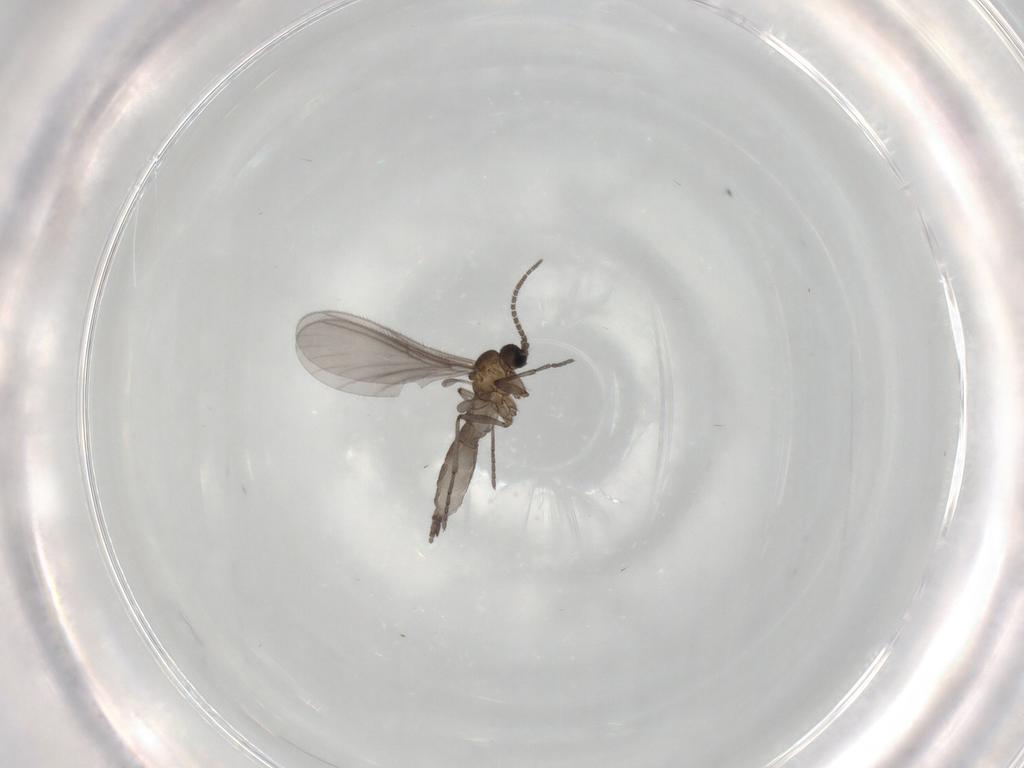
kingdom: Animalia
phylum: Arthropoda
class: Insecta
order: Diptera
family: Sciaridae
